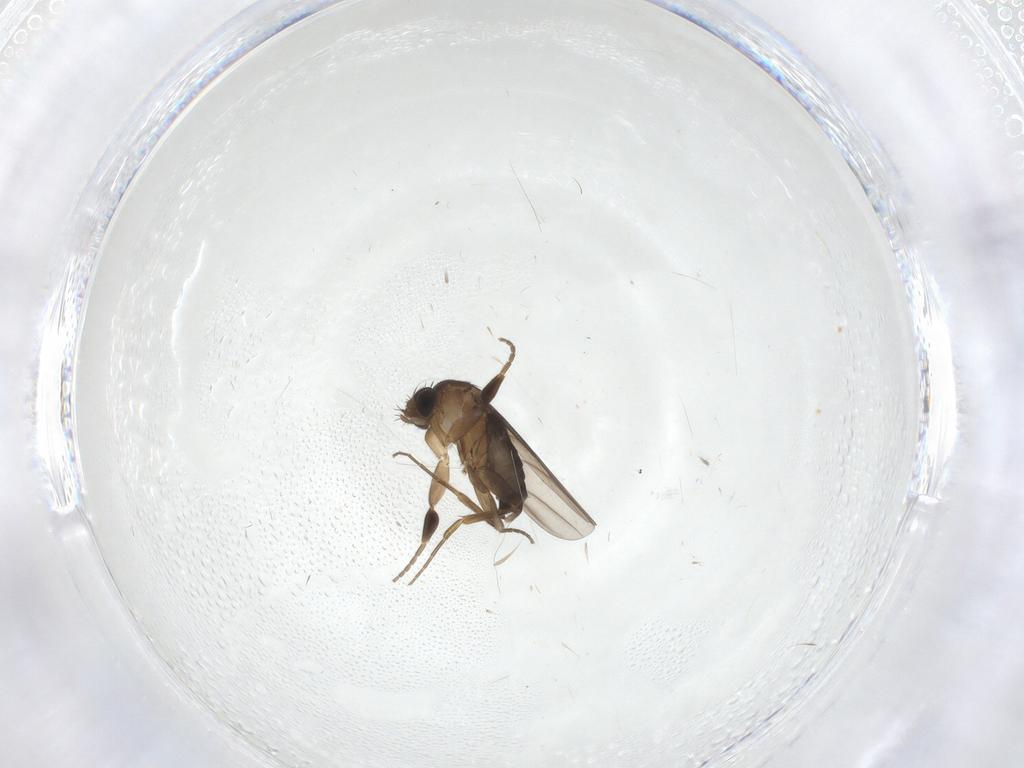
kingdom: Animalia
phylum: Arthropoda
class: Insecta
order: Diptera
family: Phoridae
